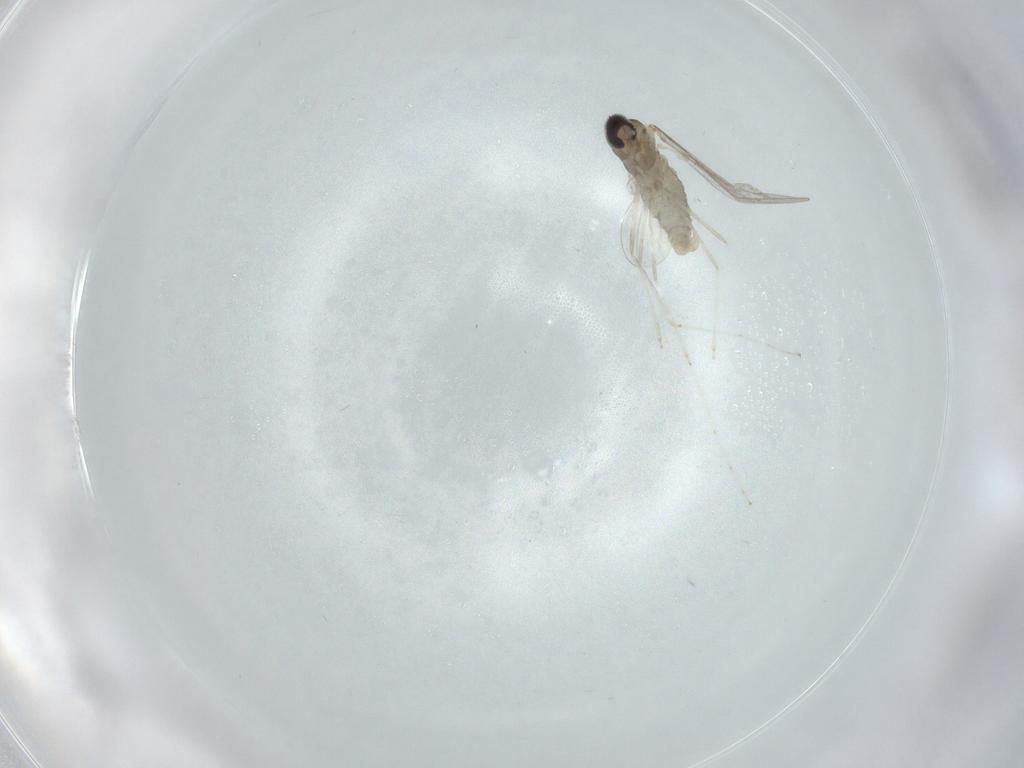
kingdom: Animalia
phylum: Arthropoda
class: Insecta
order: Diptera
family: Cecidomyiidae
